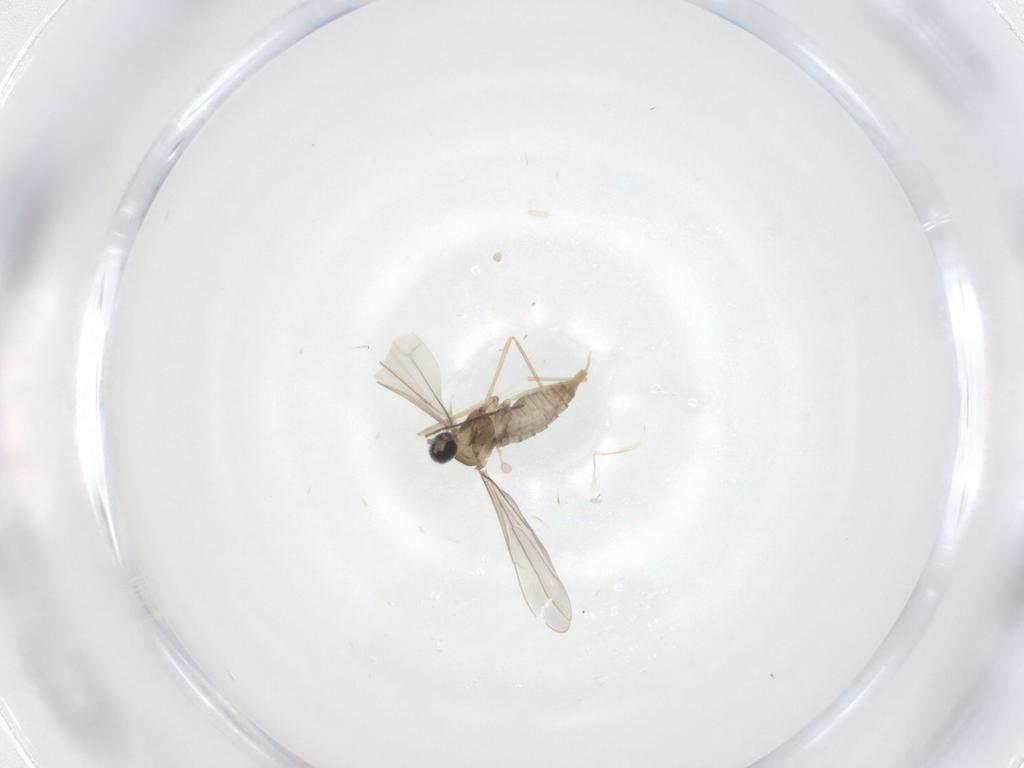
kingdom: Animalia
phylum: Arthropoda
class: Insecta
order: Diptera
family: Cecidomyiidae
